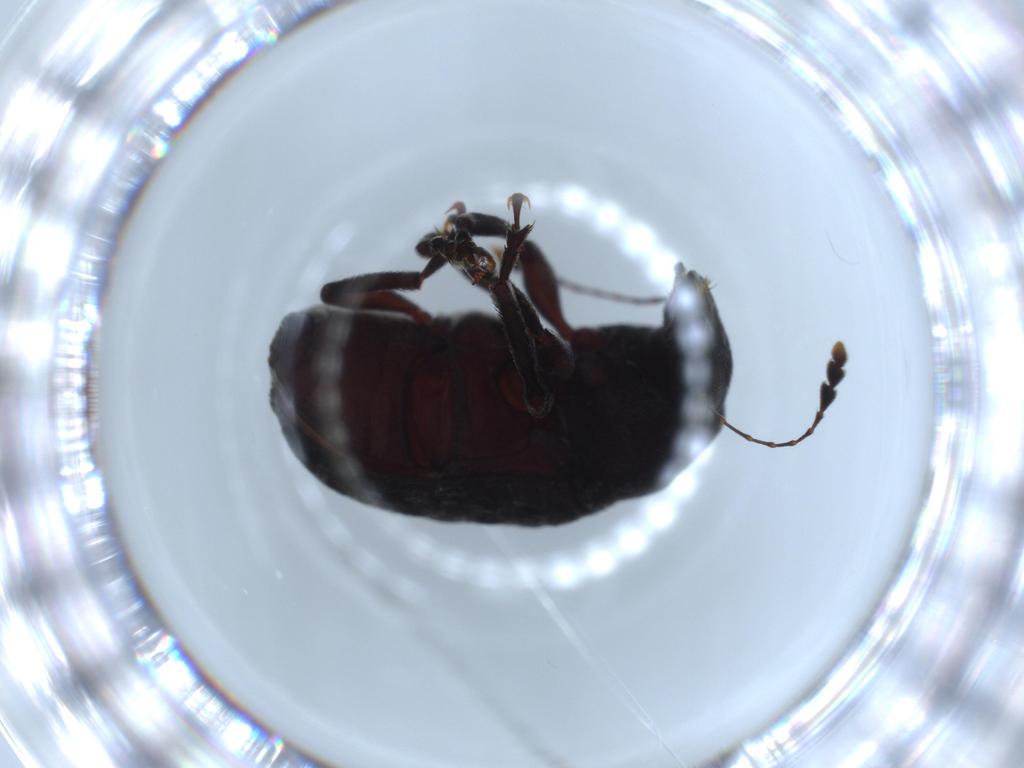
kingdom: Animalia
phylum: Arthropoda
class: Insecta
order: Coleoptera
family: Anthribidae
